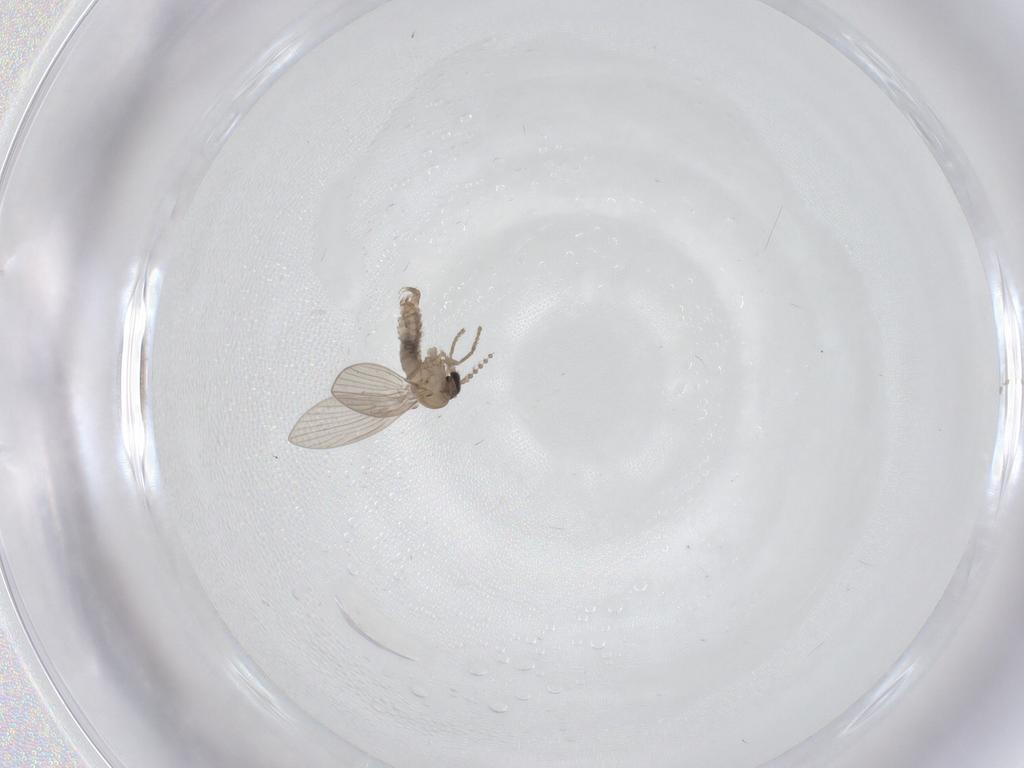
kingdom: Animalia
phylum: Arthropoda
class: Insecta
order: Diptera
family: Psychodidae
